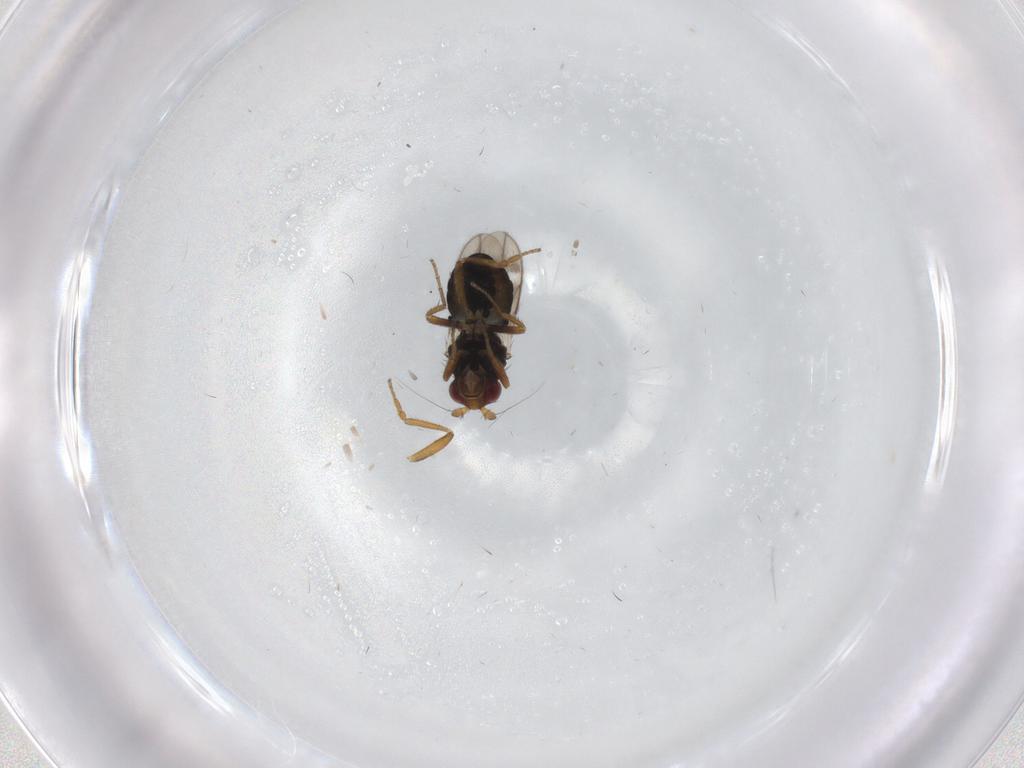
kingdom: Animalia
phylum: Arthropoda
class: Insecta
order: Diptera
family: Sphaeroceridae
